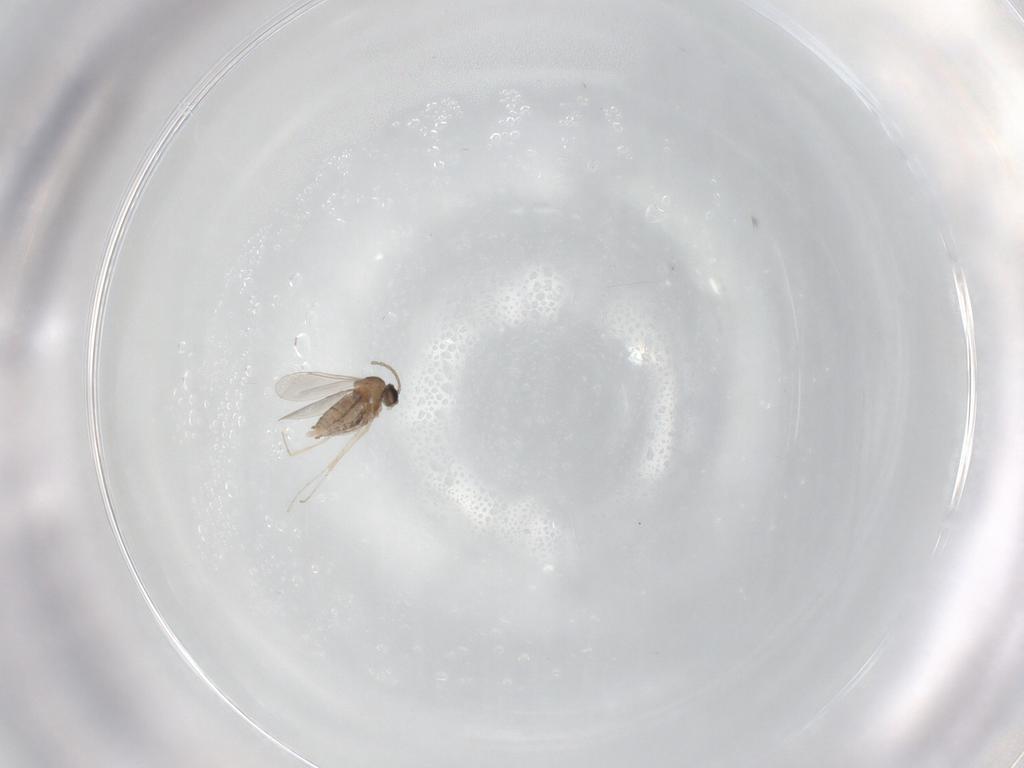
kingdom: Animalia
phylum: Arthropoda
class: Insecta
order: Diptera
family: Cecidomyiidae
